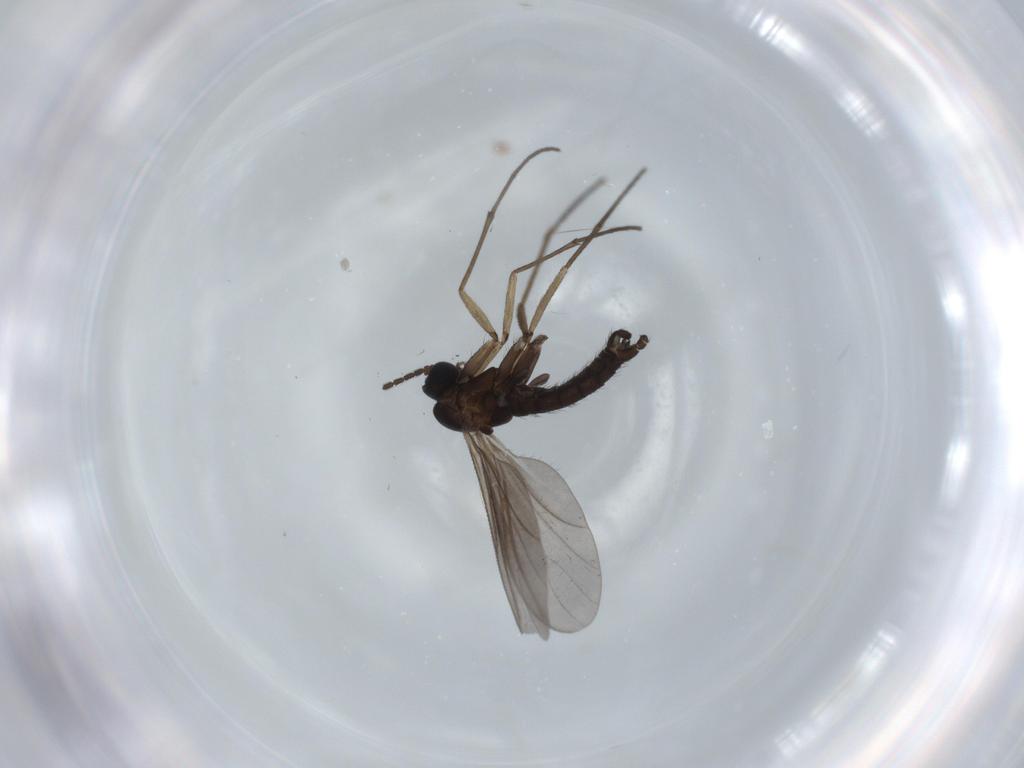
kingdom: Animalia
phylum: Arthropoda
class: Insecta
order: Diptera
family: Sciaridae
